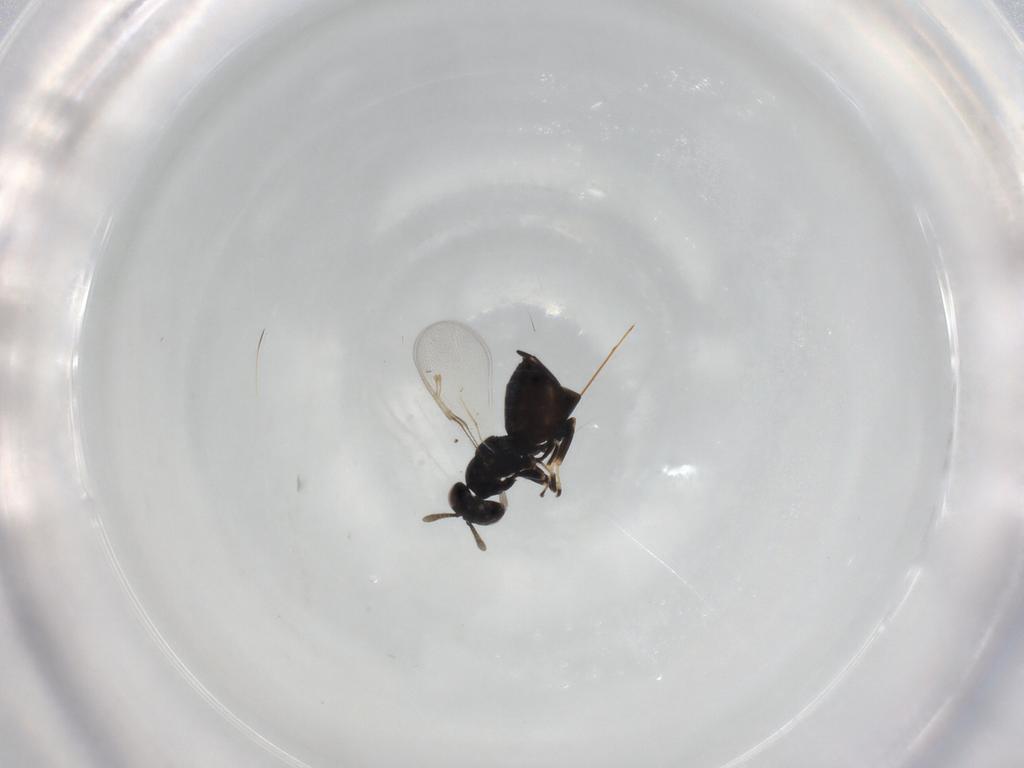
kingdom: Animalia
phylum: Arthropoda
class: Insecta
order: Hymenoptera
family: Pteromalidae
